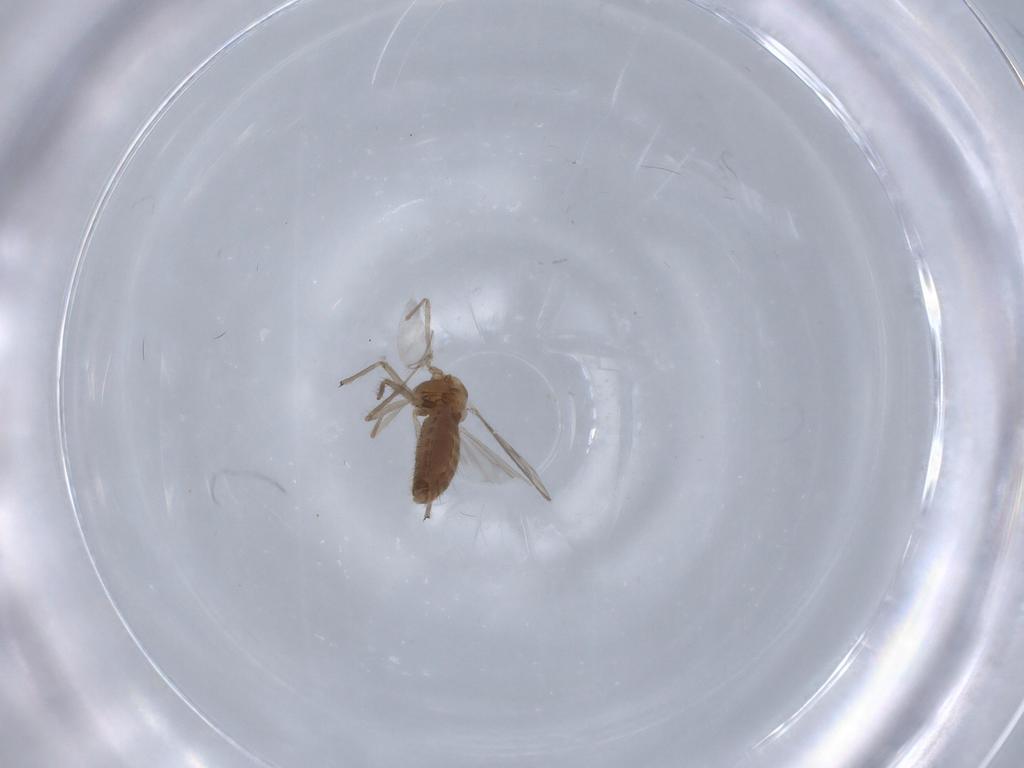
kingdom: Animalia
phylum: Arthropoda
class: Insecta
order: Diptera
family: Chironomidae
